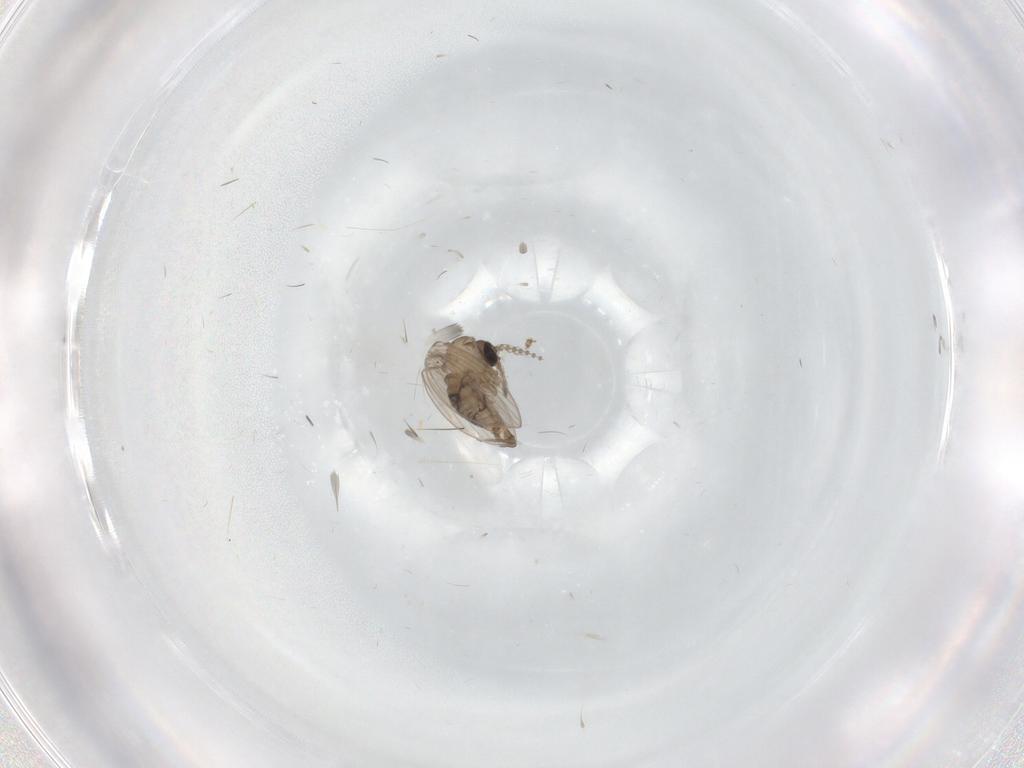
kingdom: Animalia
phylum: Arthropoda
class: Insecta
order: Diptera
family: Psychodidae
